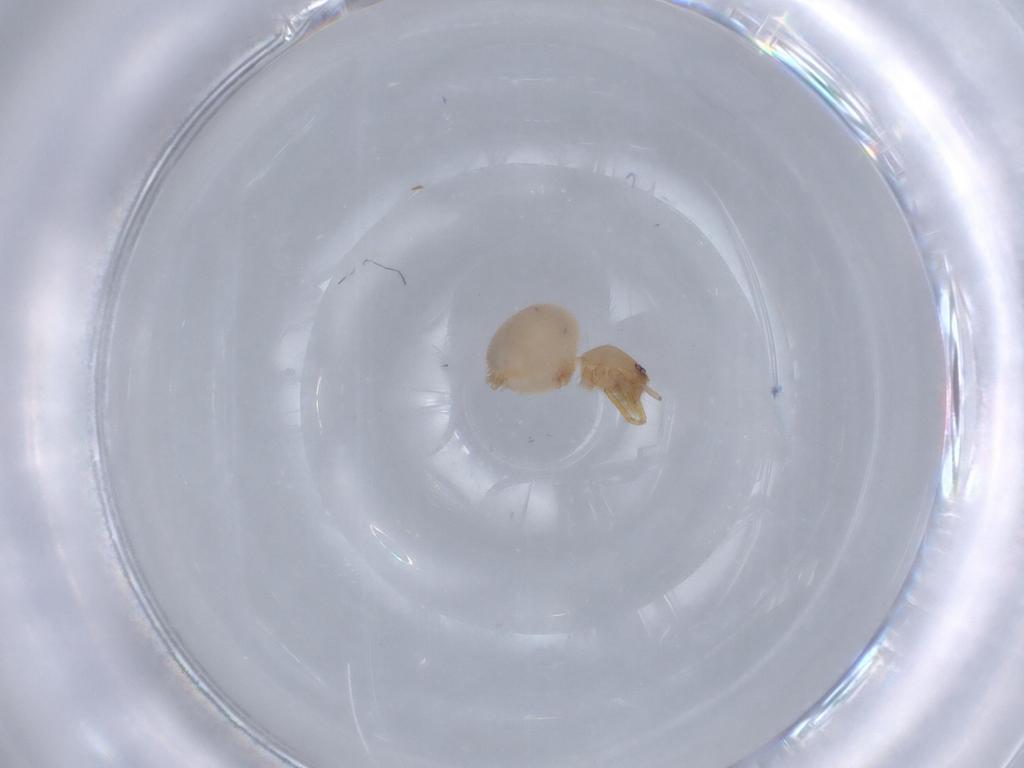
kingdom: Animalia
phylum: Arthropoda
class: Arachnida
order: Araneae
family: Oonopidae
